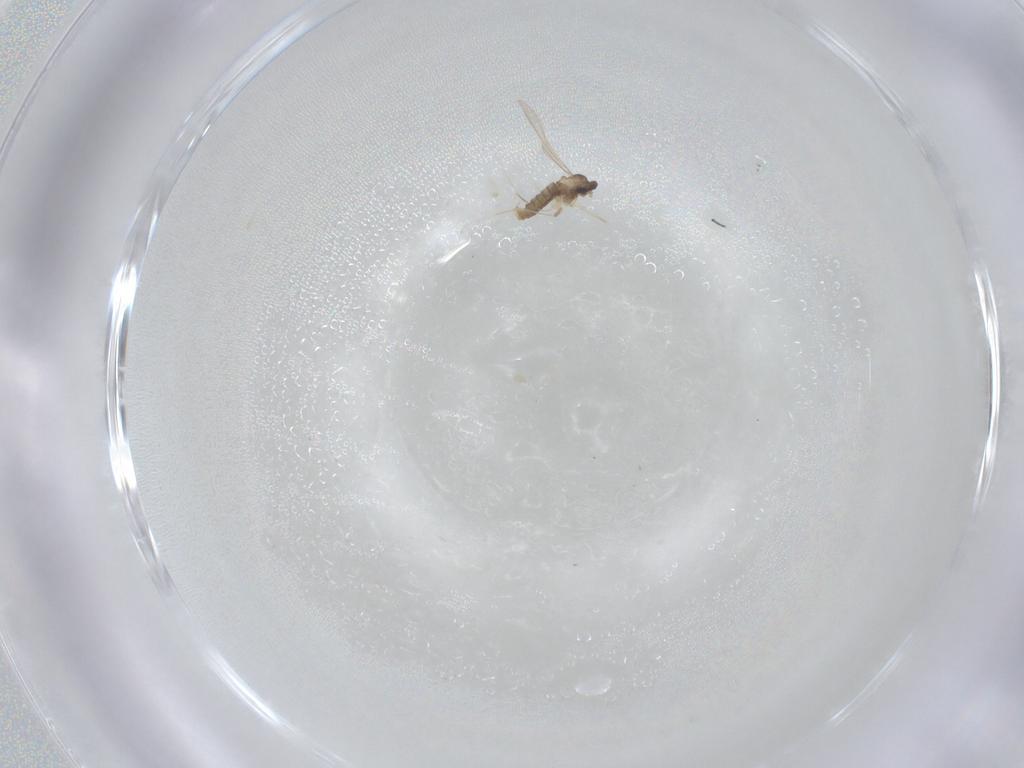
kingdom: Animalia
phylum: Arthropoda
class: Insecta
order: Diptera
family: Cecidomyiidae
